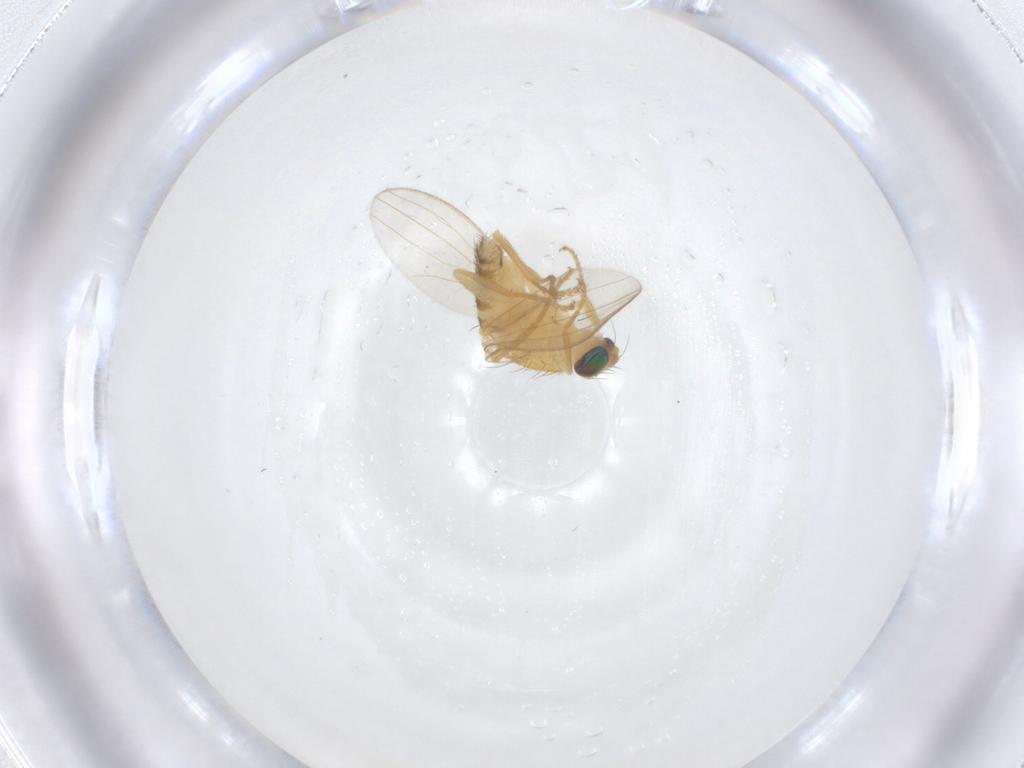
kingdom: Animalia
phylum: Arthropoda
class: Insecta
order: Diptera
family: Chyromyidae
